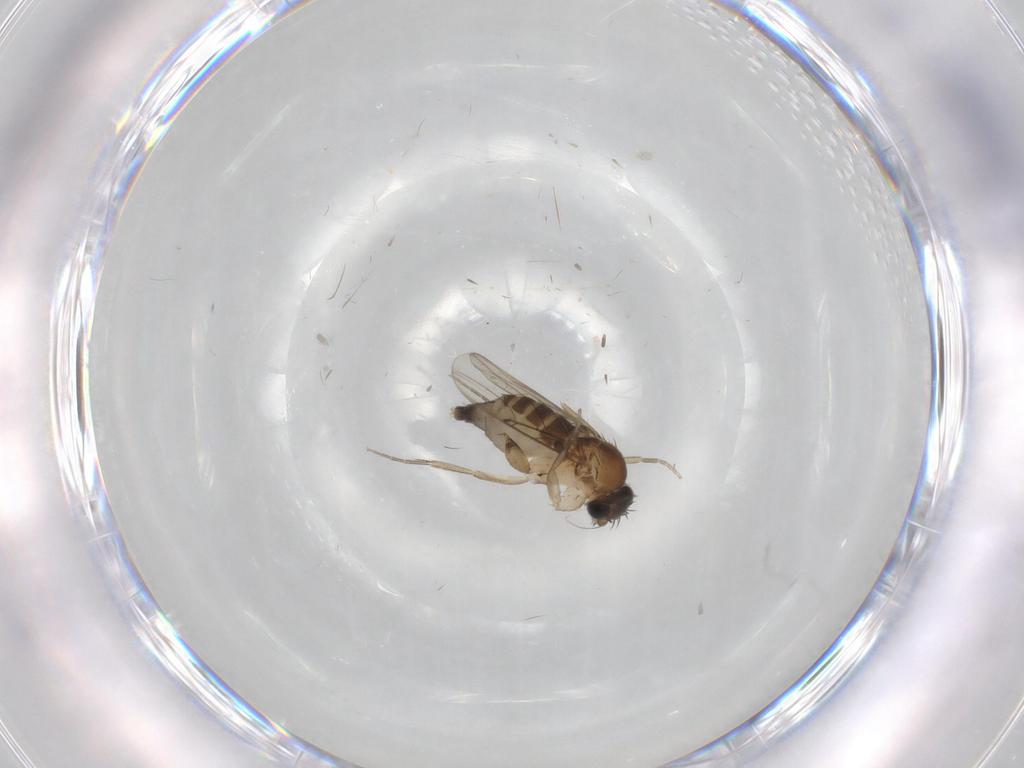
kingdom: Animalia
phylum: Arthropoda
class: Insecta
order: Diptera
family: Phoridae
